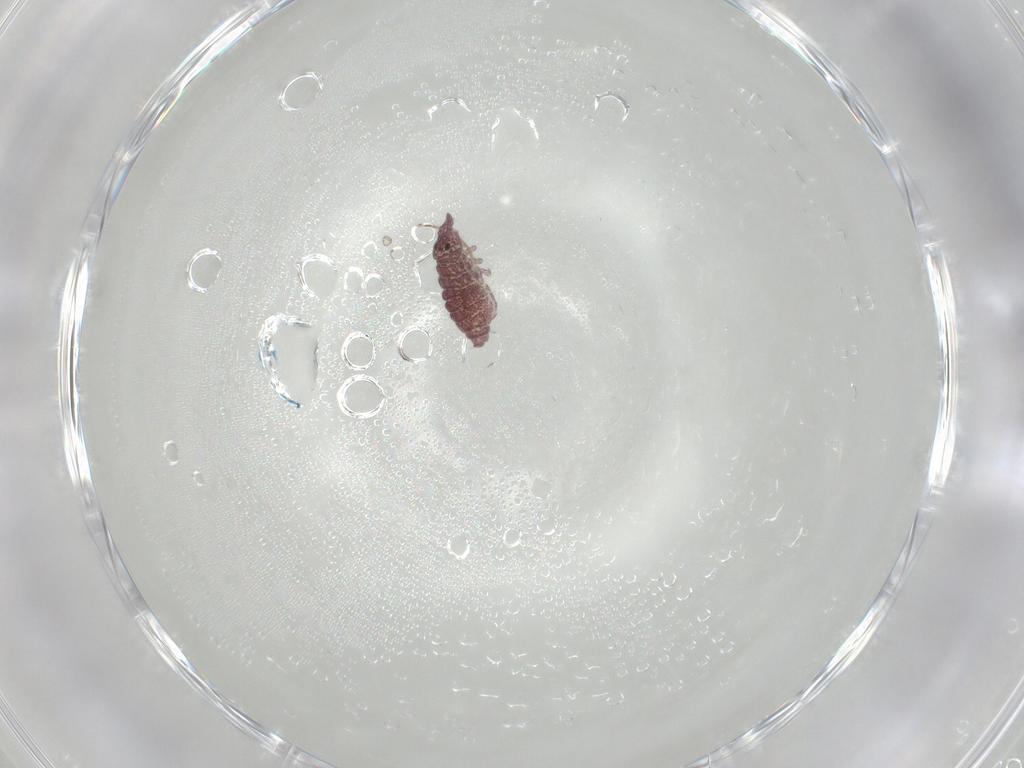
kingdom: Animalia
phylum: Arthropoda
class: Collembola
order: Poduromorpha
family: Hypogastruridae
